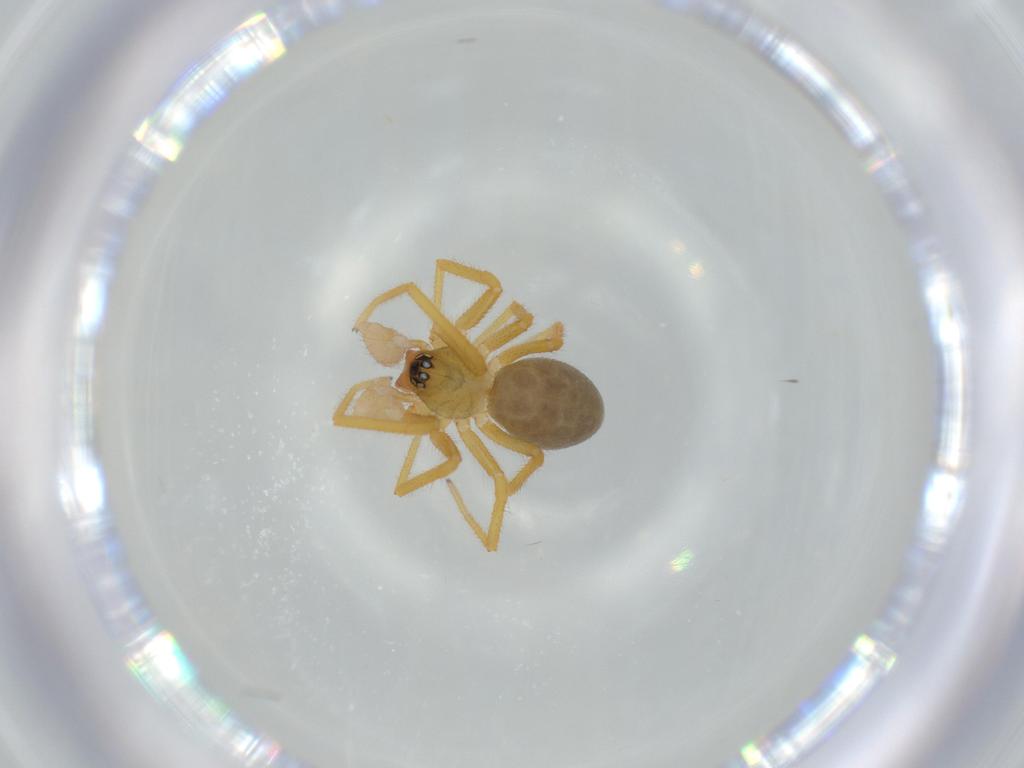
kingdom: Animalia
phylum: Arthropoda
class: Arachnida
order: Araneae
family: Linyphiidae
